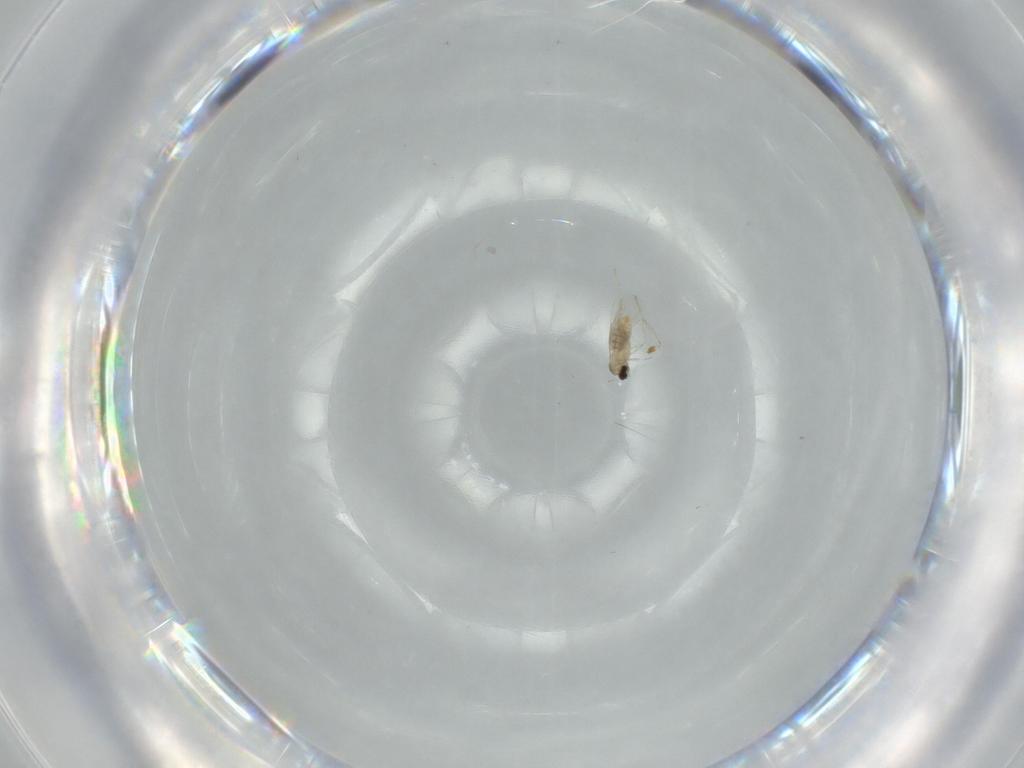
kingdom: Animalia
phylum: Arthropoda
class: Insecta
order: Diptera
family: Cecidomyiidae
